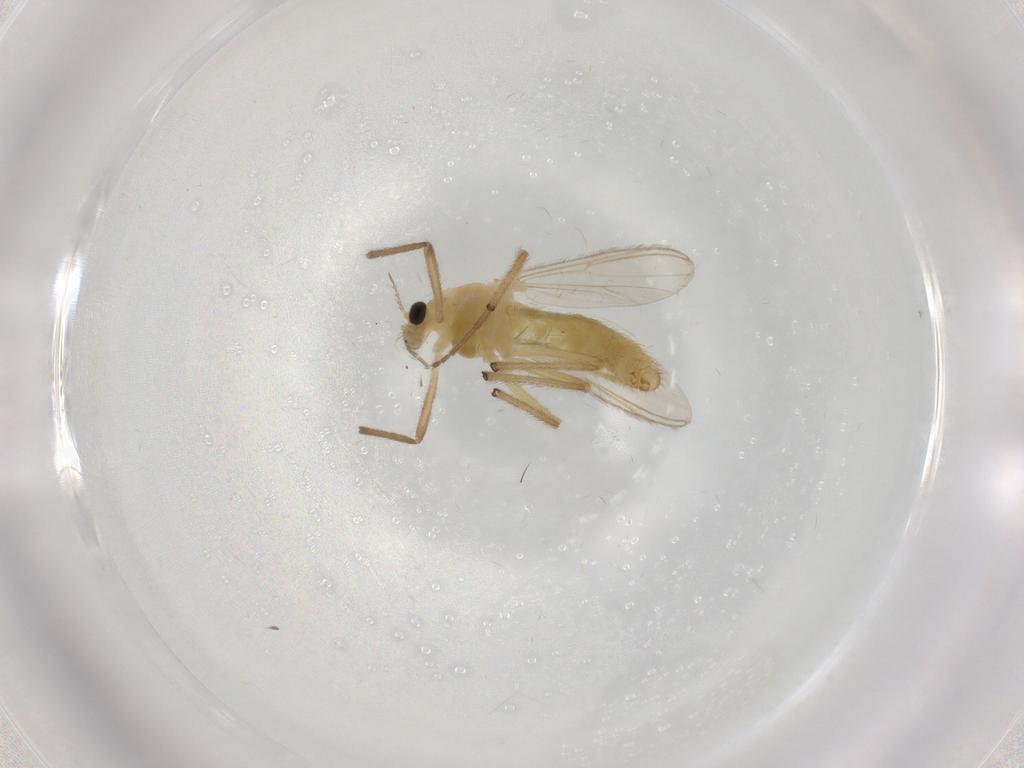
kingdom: Animalia
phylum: Arthropoda
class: Insecta
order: Diptera
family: Chironomidae
